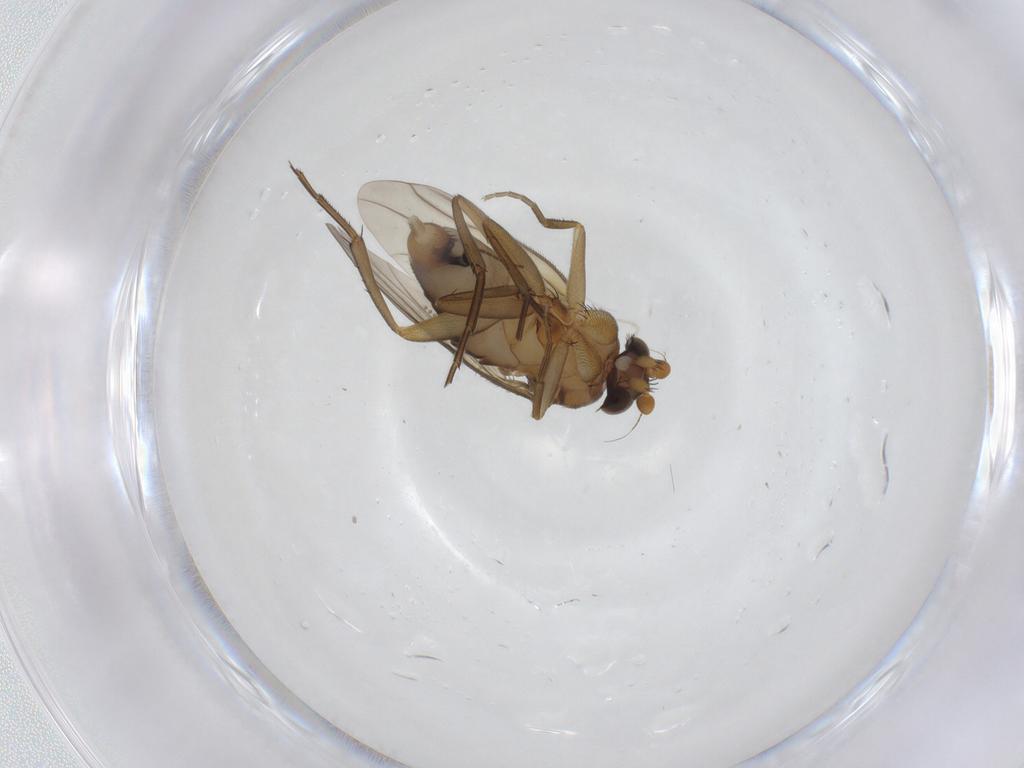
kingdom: Animalia
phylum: Arthropoda
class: Insecta
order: Diptera
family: Phoridae
